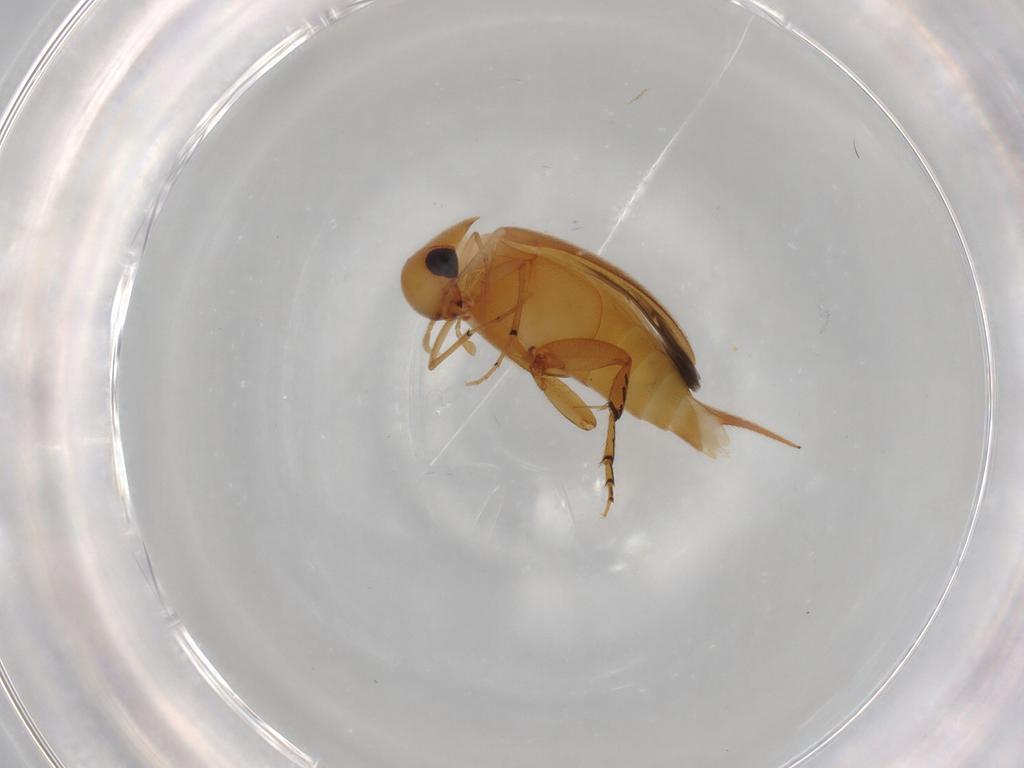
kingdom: Animalia
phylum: Arthropoda
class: Insecta
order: Coleoptera
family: Mordellidae
